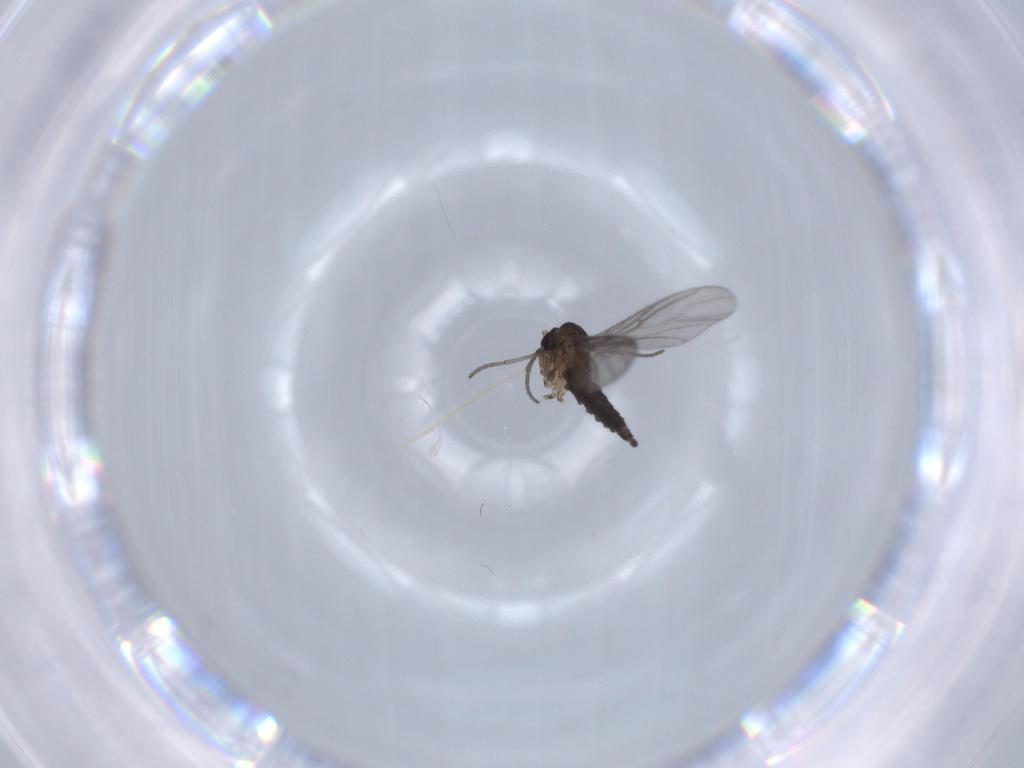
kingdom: Animalia
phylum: Arthropoda
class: Insecta
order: Diptera
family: Sciaridae
